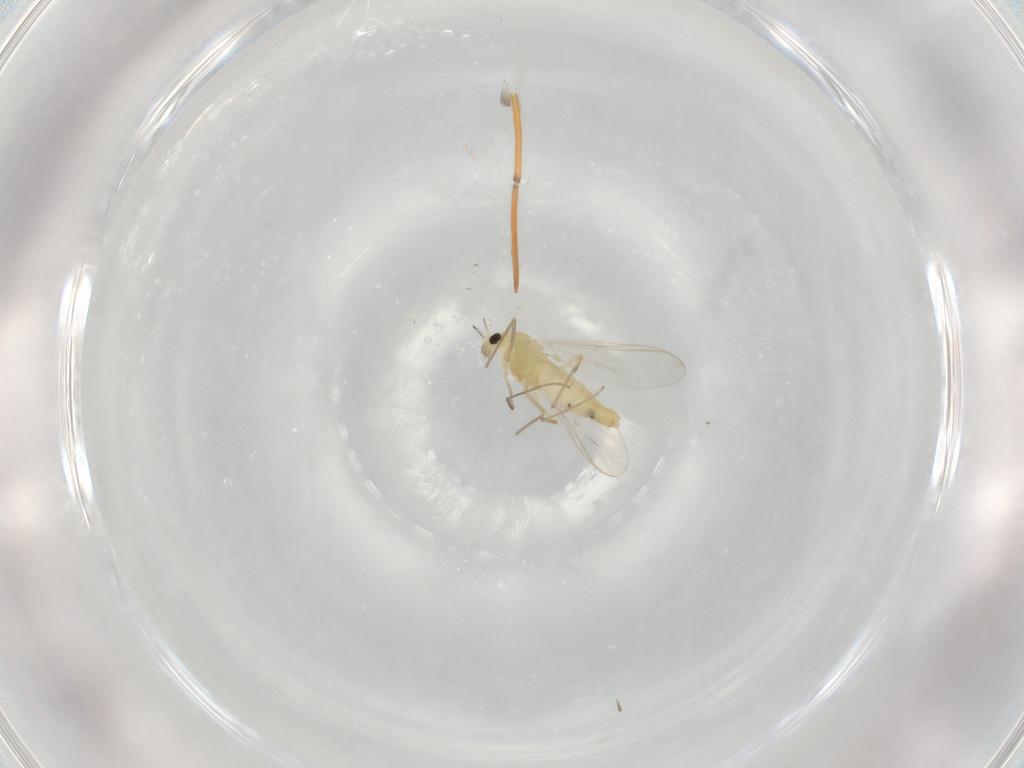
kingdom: Animalia
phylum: Arthropoda
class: Insecta
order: Diptera
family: Cecidomyiidae
